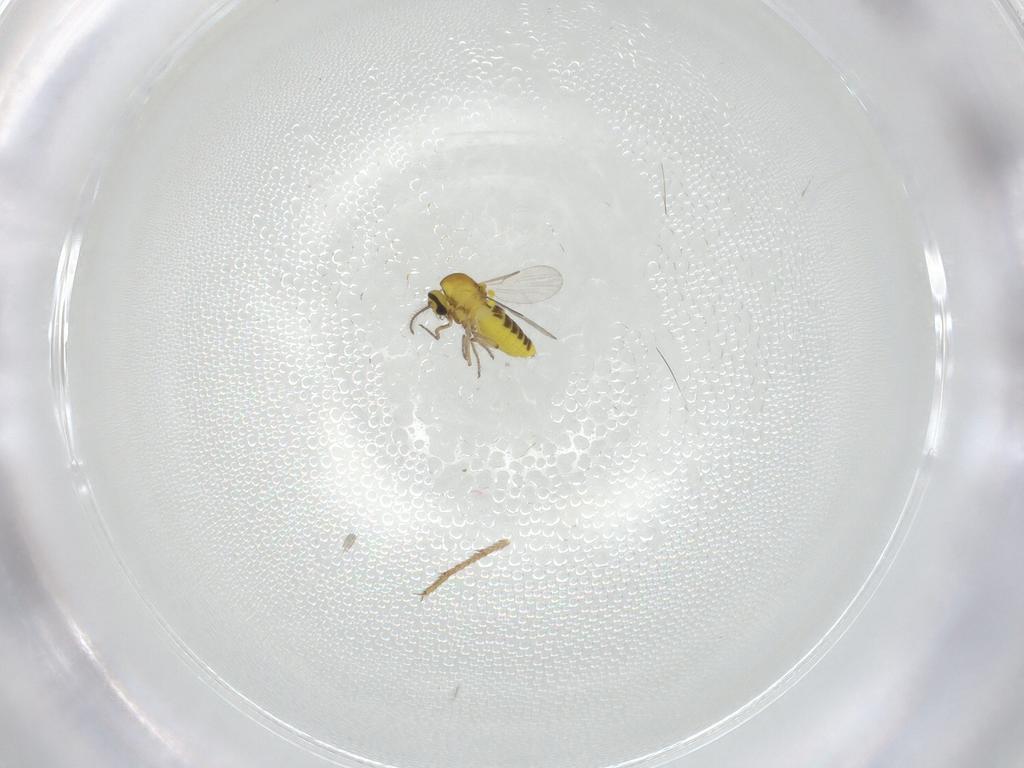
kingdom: Animalia
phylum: Arthropoda
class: Insecta
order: Diptera
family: Ceratopogonidae
